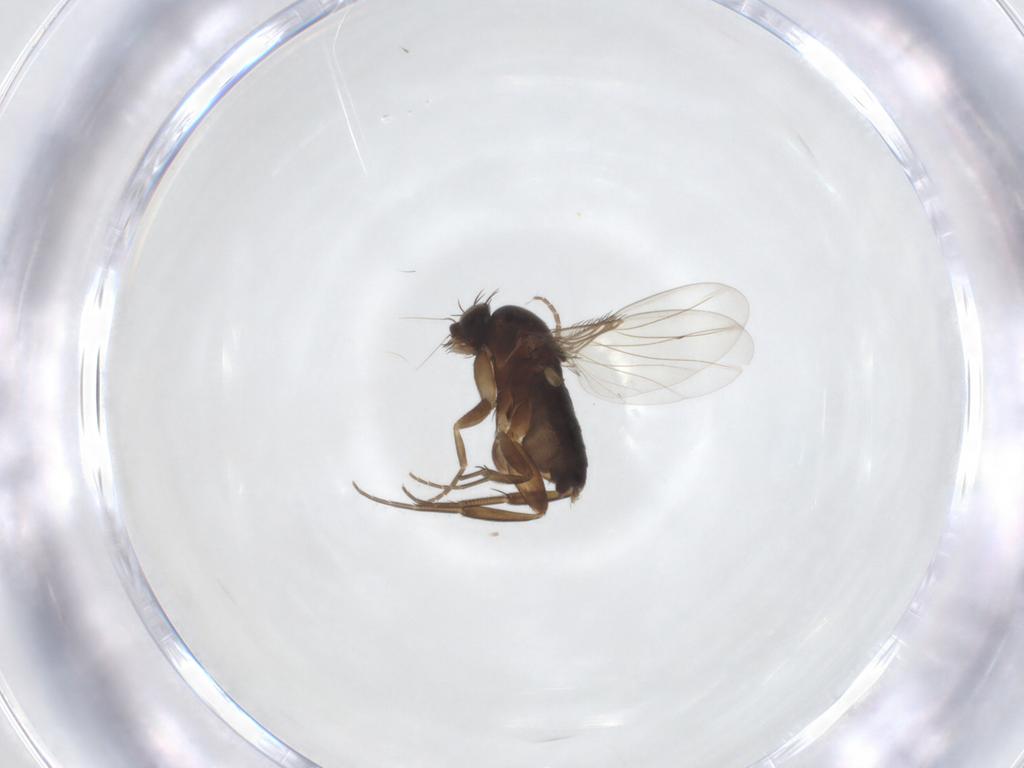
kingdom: Animalia
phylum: Arthropoda
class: Insecta
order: Diptera
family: Phoridae
